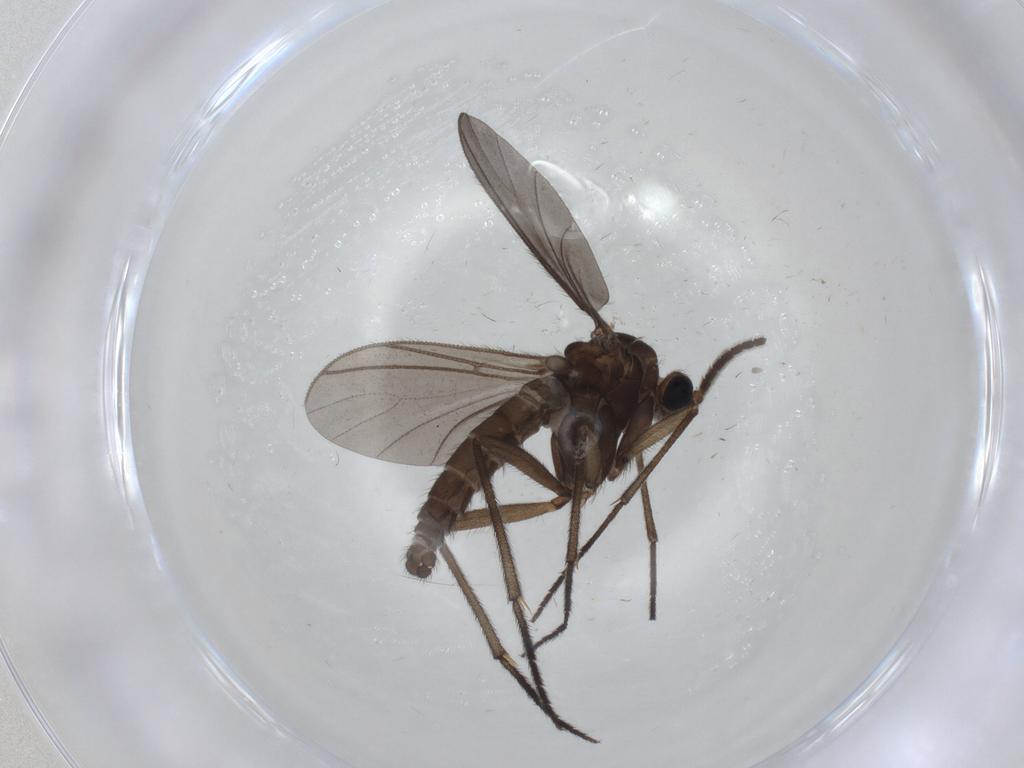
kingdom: Animalia
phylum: Arthropoda
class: Insecta
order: Diptera
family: Cecidomyiidae
